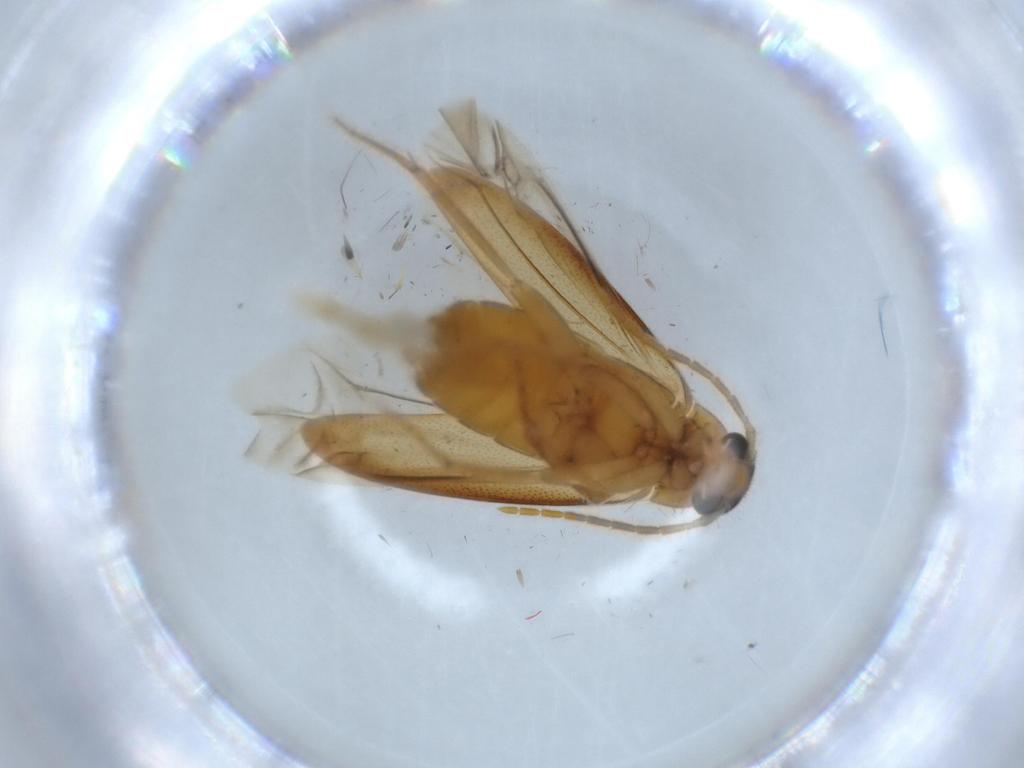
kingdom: Animalia
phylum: Arthropoda
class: Insecta
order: Coleoptera
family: Scraptiidae
